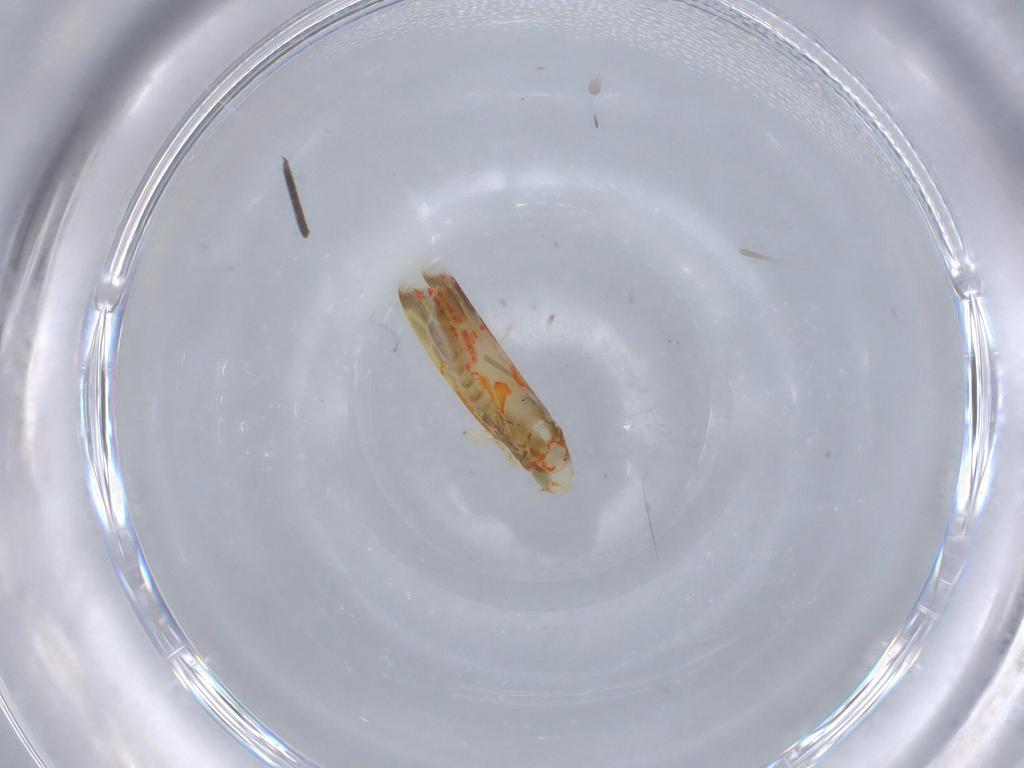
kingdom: Animalia
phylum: Arthropoda
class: Insecta
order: Hemiptera
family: Cicadellidae
